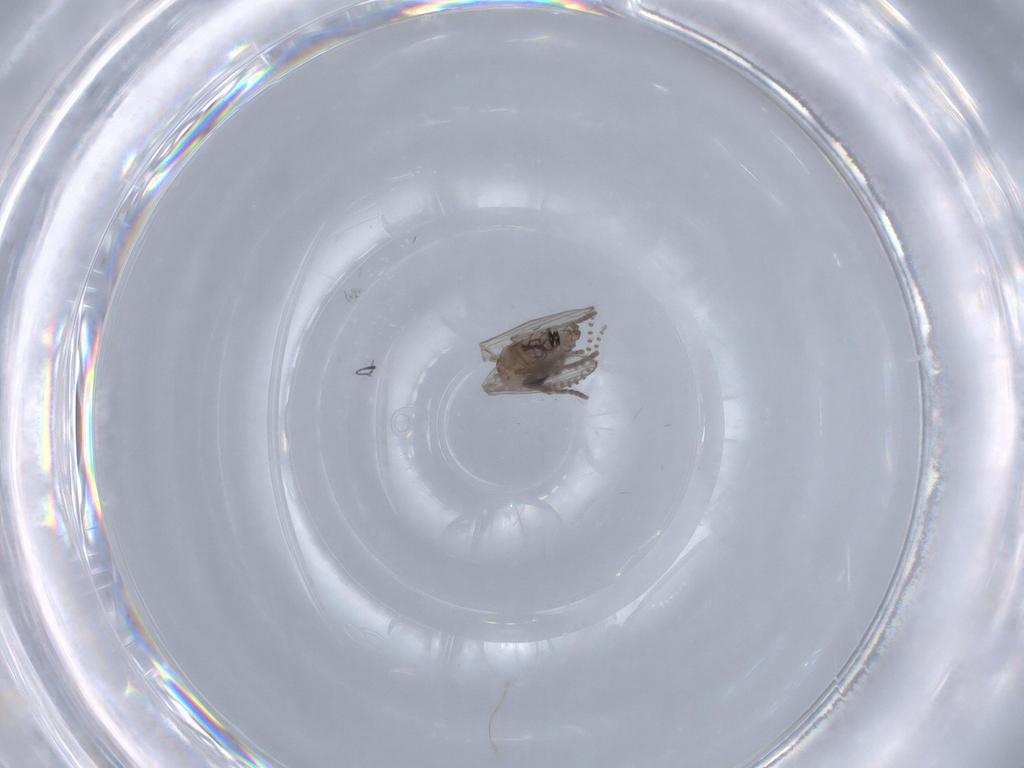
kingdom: Animalia
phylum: Arthropoda
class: Insecta
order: Diptera
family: Psychodidae
